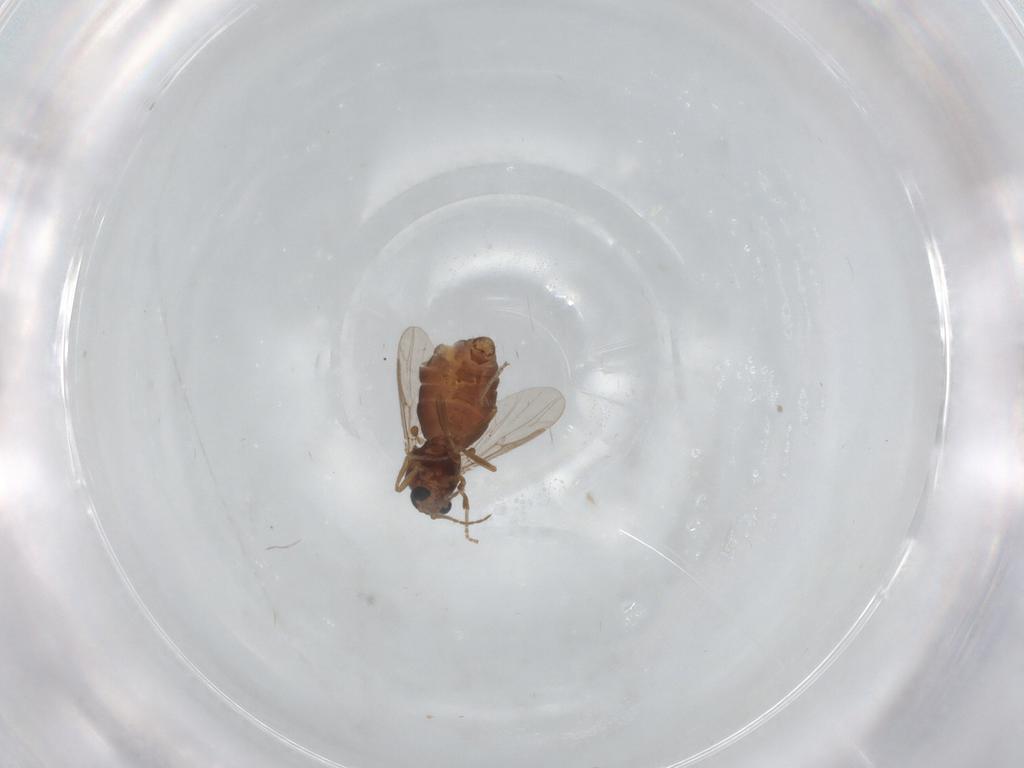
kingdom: Animalia
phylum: Arthropoda
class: Insecta
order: Diptera
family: Ceratopogonidae
